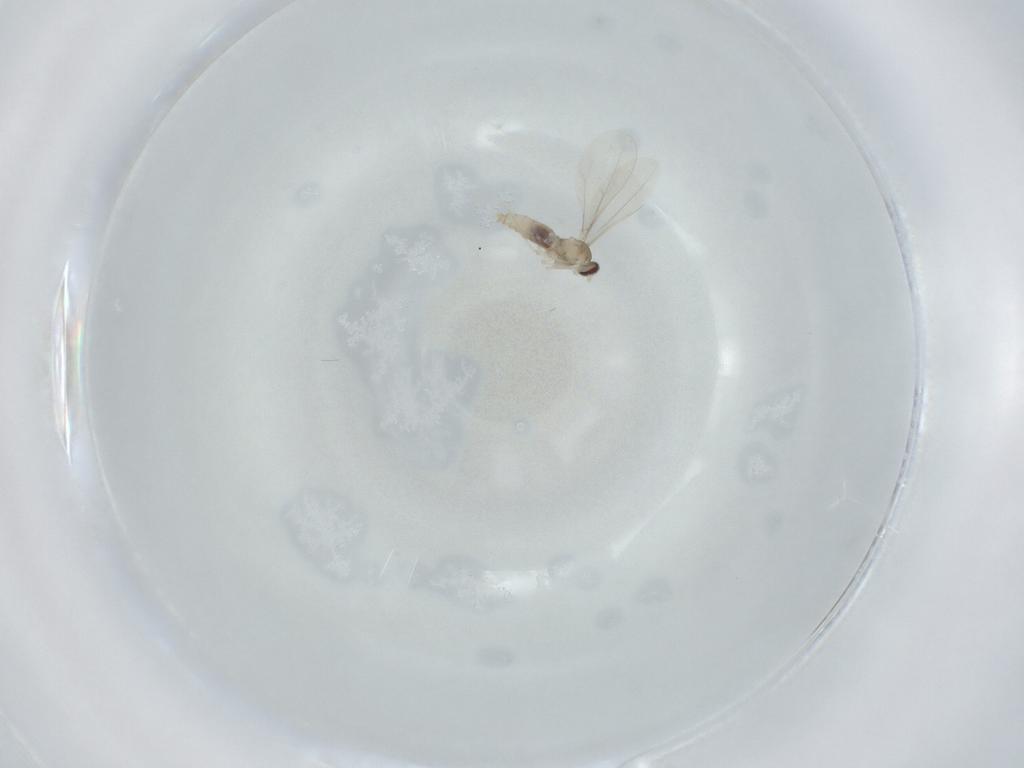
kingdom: Animalia
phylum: Arthropoda
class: Insecta
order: Diptera
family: Cecidomyiidae
